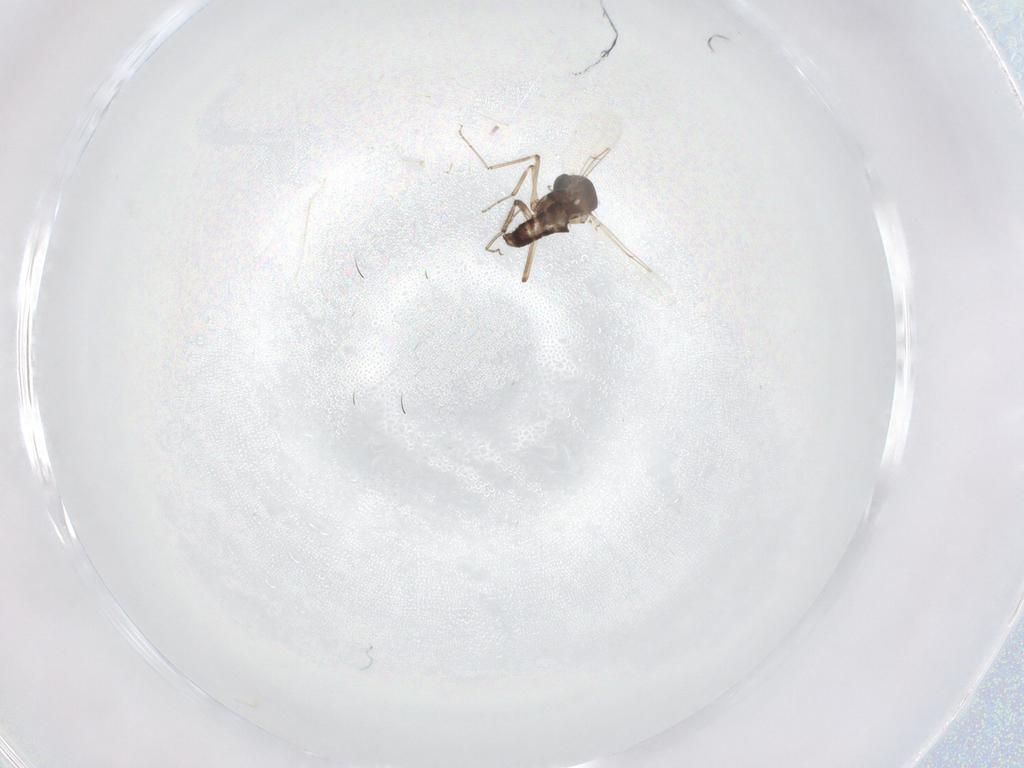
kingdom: Animalia
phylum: Arthropoda
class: Insecta
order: Diptera
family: Ceratopogonidae
